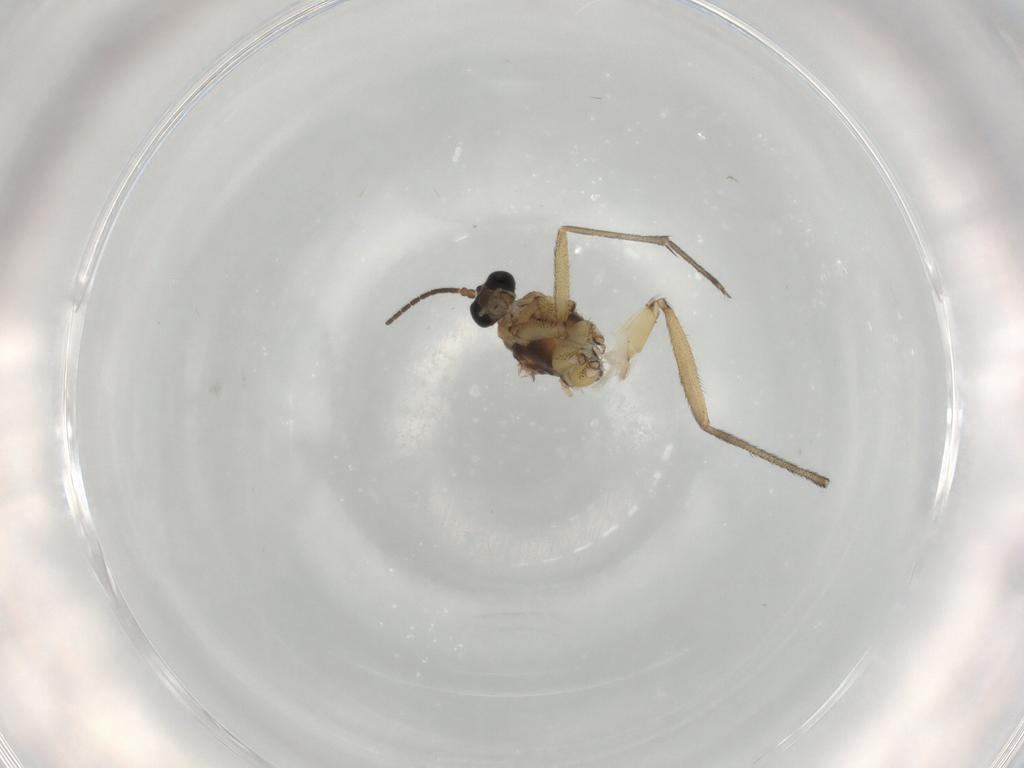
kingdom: Animalia
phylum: Arthropoda
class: Insecta
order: Diptera
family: Sciaridae
